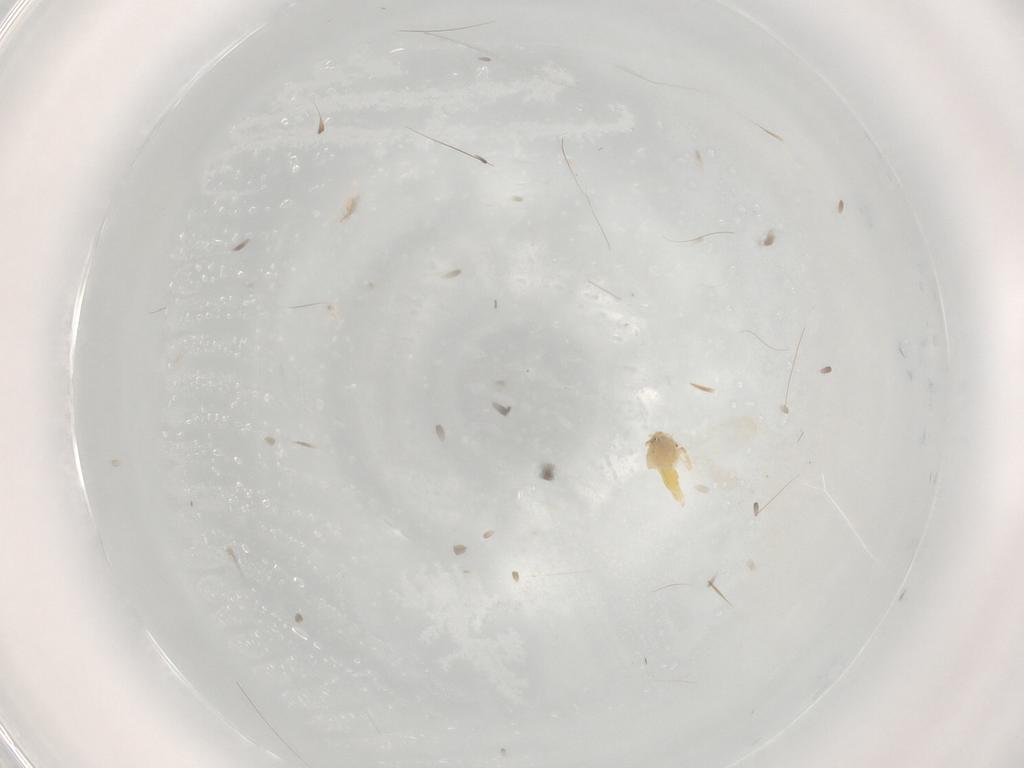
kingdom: Animalia
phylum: Arthropoda
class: Insecta
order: Hemiptera
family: Aleyrodidae
